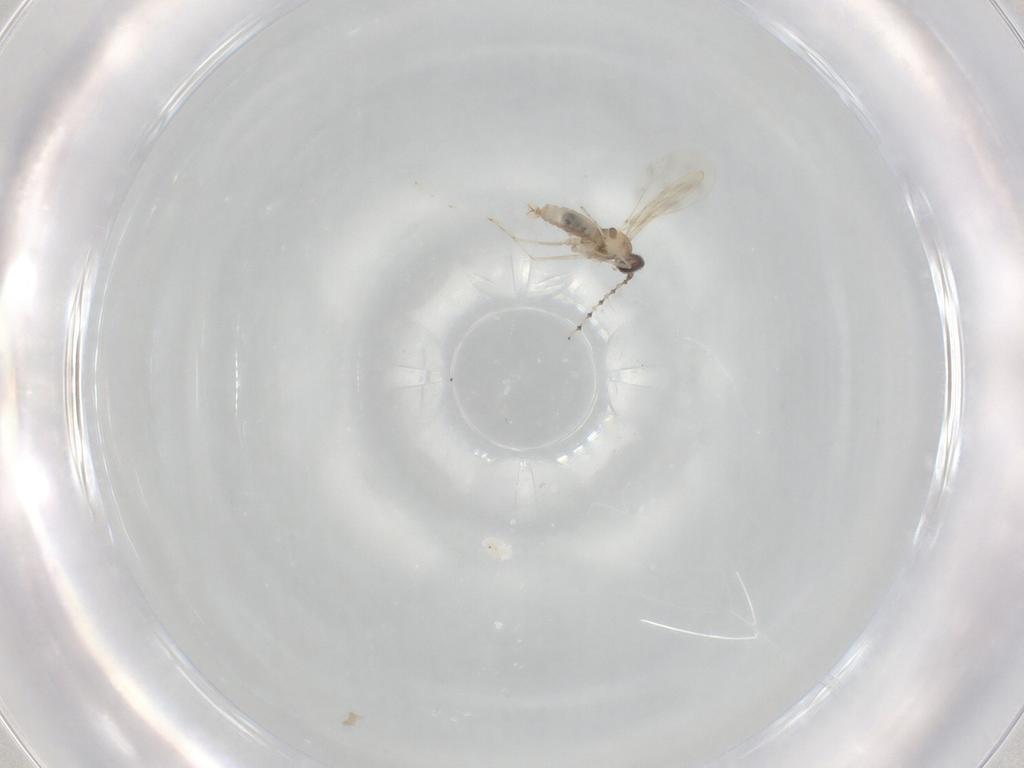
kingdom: Animalia
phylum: Arthropoda
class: Insecta
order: Diptera
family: Cecidomyiidae
